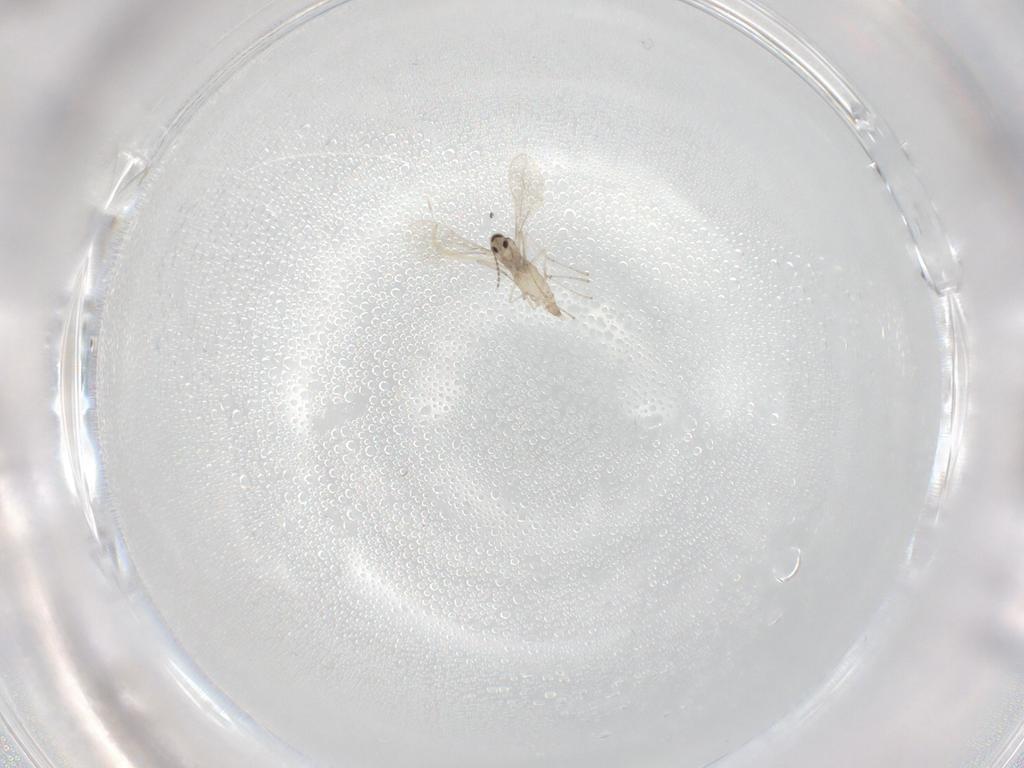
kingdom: Animalia
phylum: Arthropoda
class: Insecta
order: Diptera
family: Chironomidae
